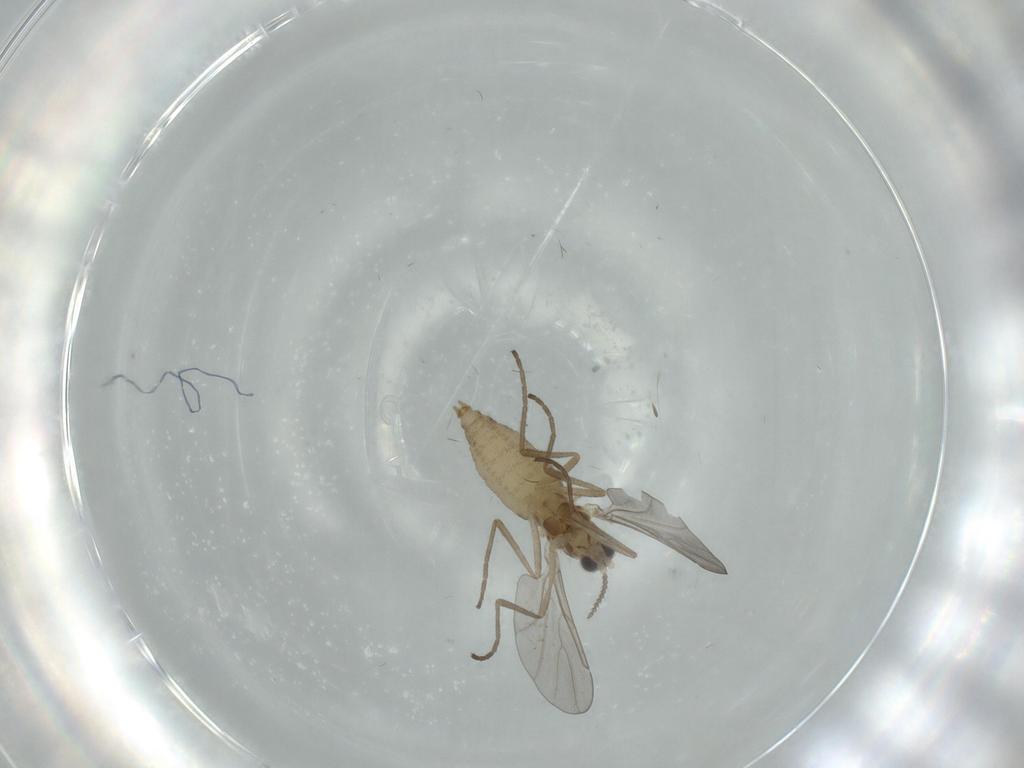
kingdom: Animalia
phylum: Arthropoda
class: Insecta
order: Diptera
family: Cecidomyiidae
